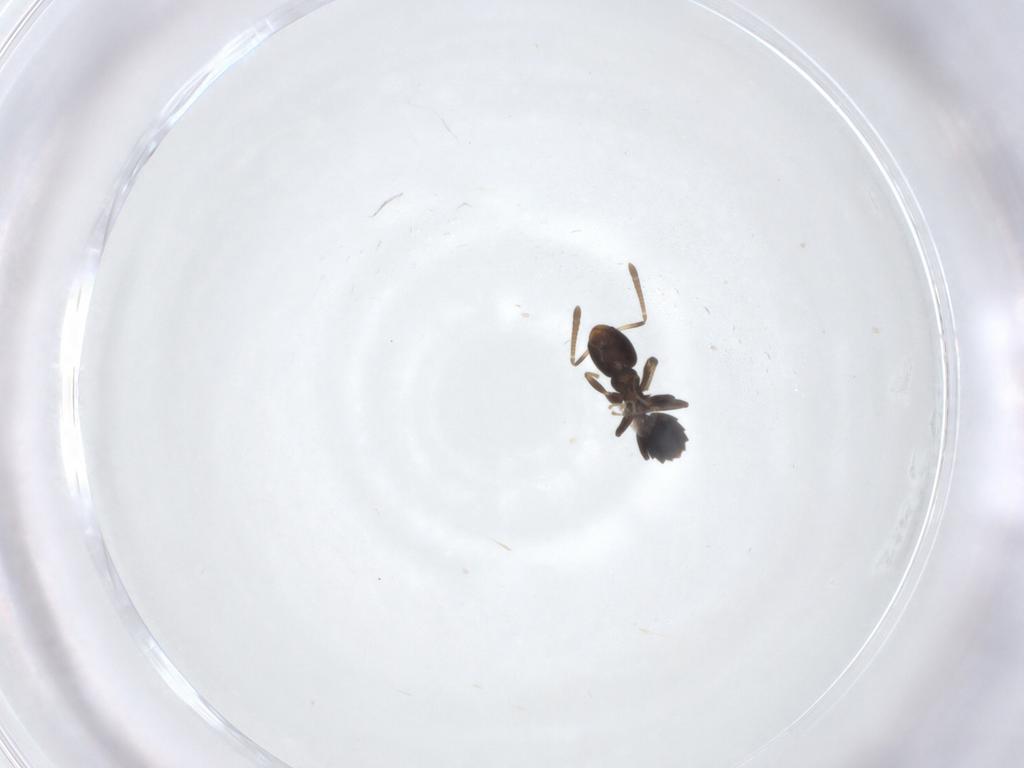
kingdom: Animalia
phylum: Arthropoda
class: Insecta
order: Hymenoptera
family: Formicidae
